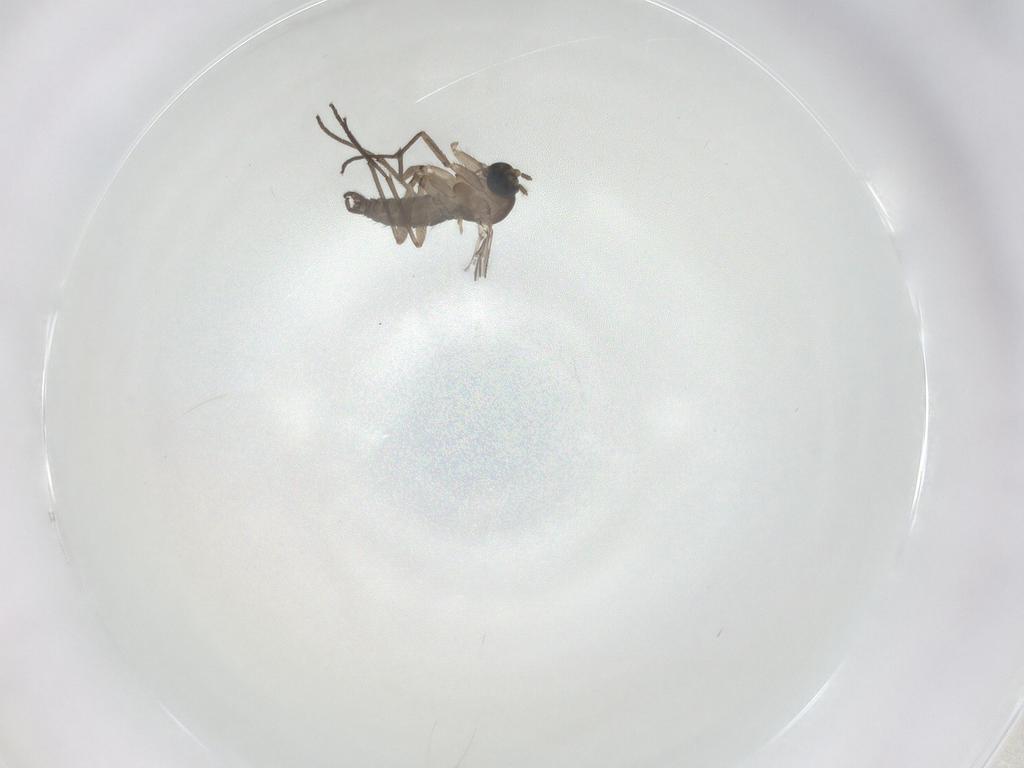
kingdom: Animalia
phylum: Arthropoda
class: Insecta
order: Diptera
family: Sciaridae
